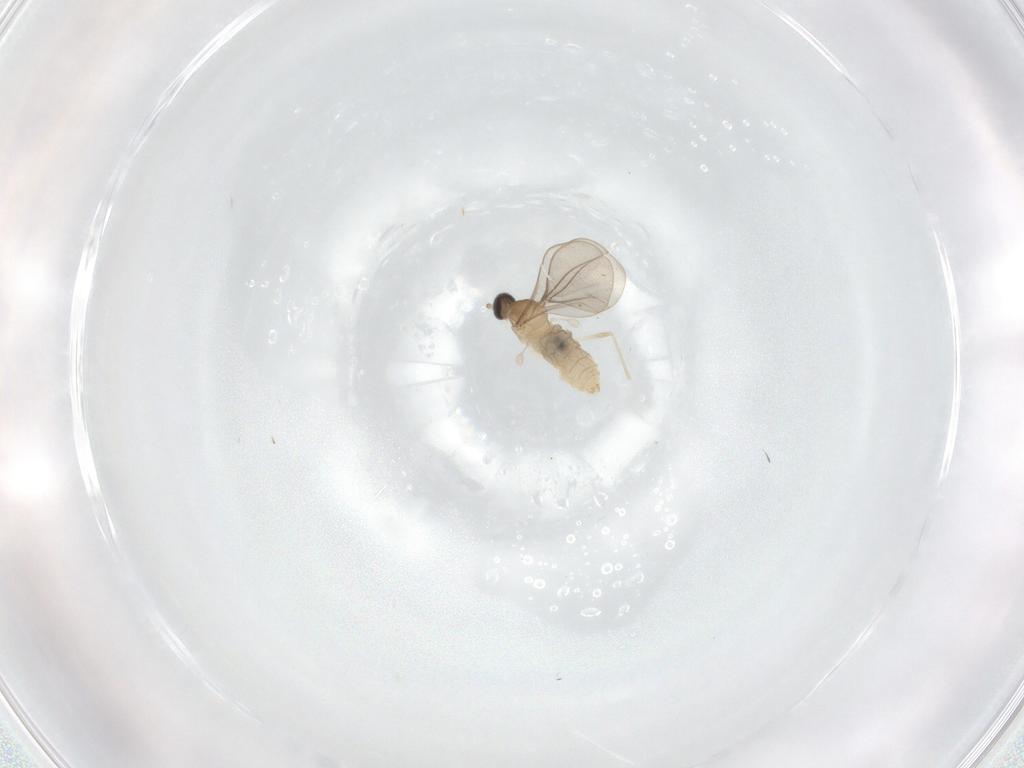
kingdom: Animalia
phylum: Arthropoda
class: Insecta
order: Diptera
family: Cecidomyiidae
